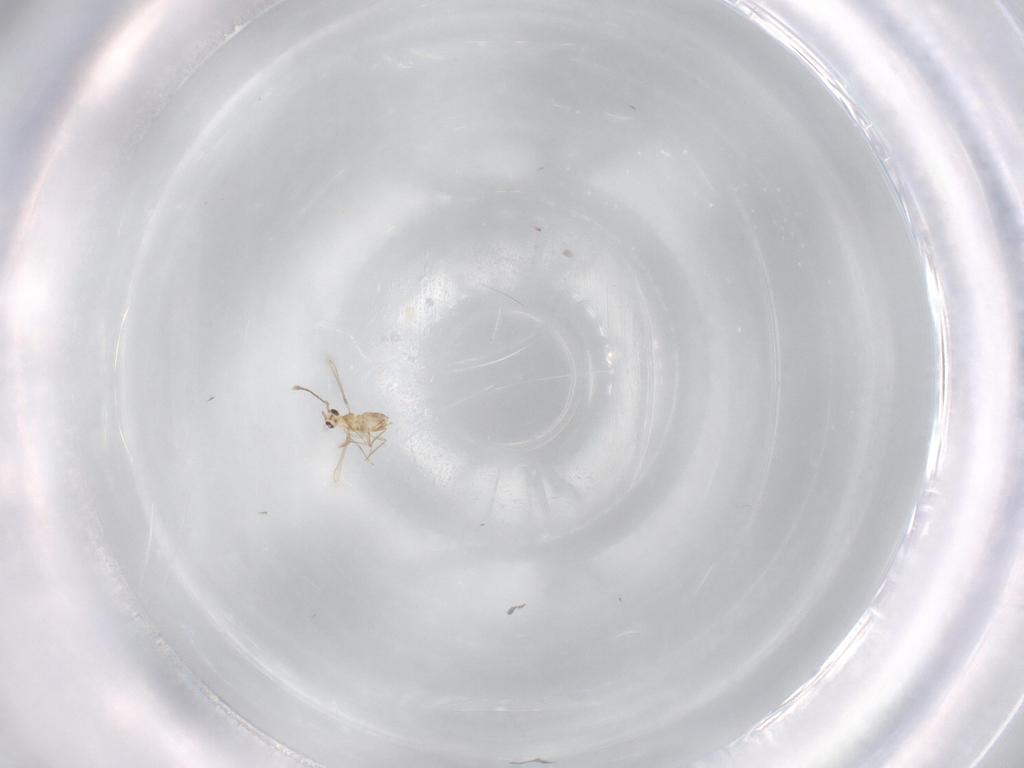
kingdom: Animalia
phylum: Arthropoda
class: Insecta
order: Hymenoptera
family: Mymaridae
